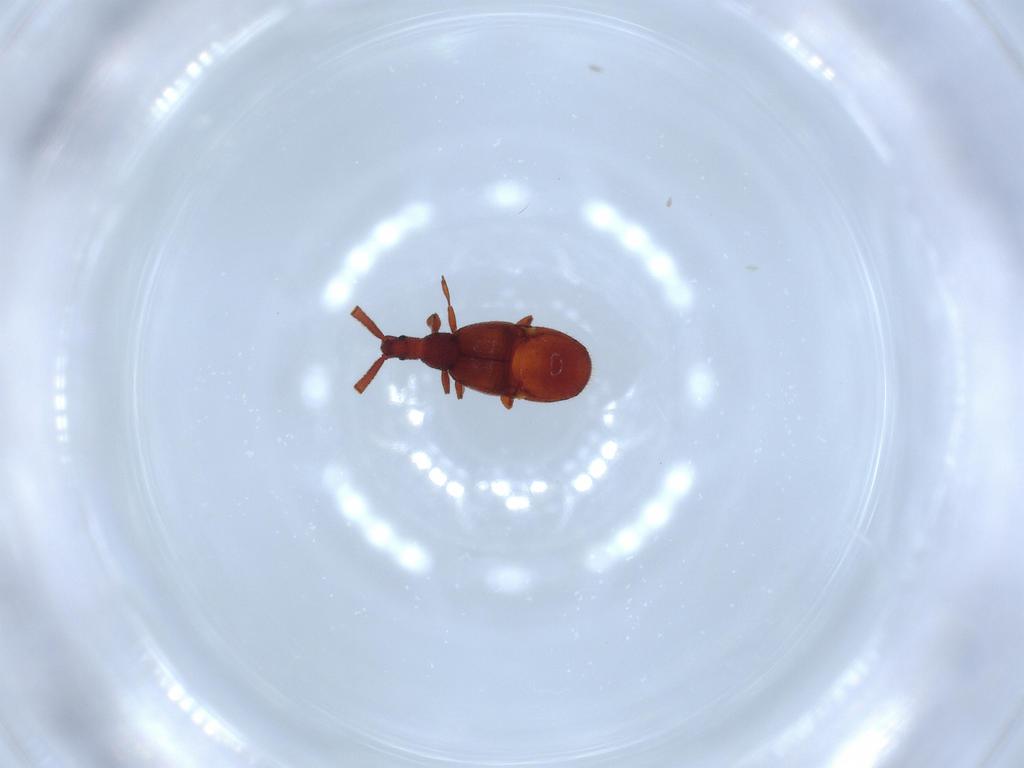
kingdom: Animalia
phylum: Arthropoda
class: Insecta
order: Coleoptera
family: Staphylinidae
